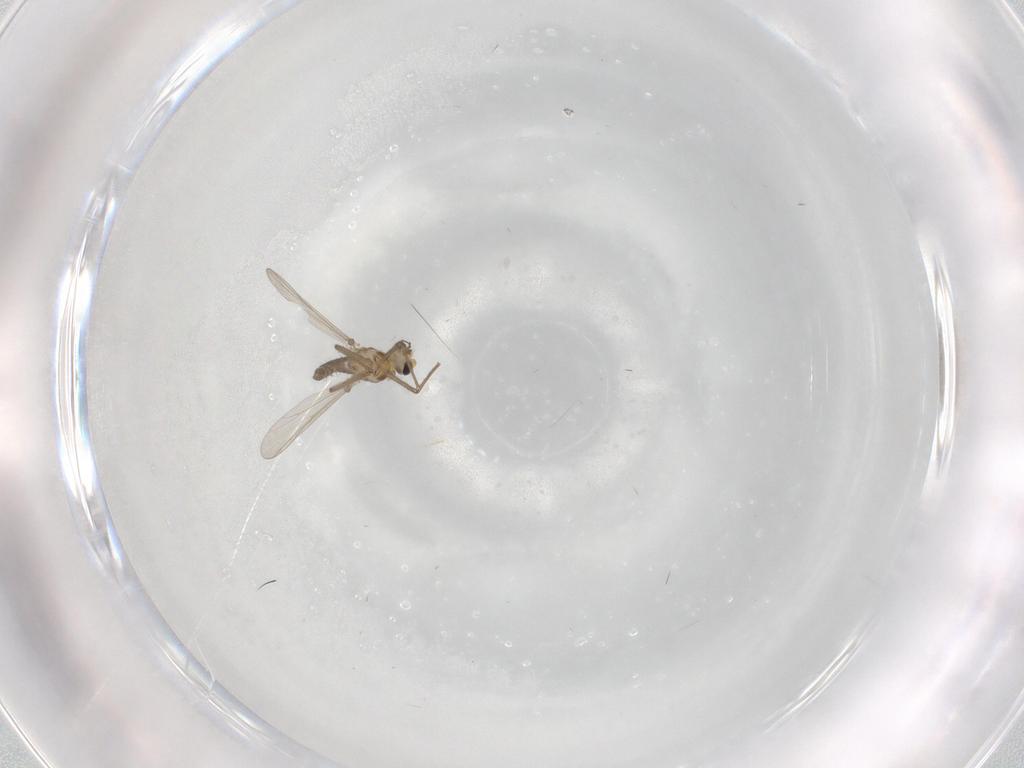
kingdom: Animalia
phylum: Arthropoda
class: Insecta
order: Diptera
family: Chironomidae
